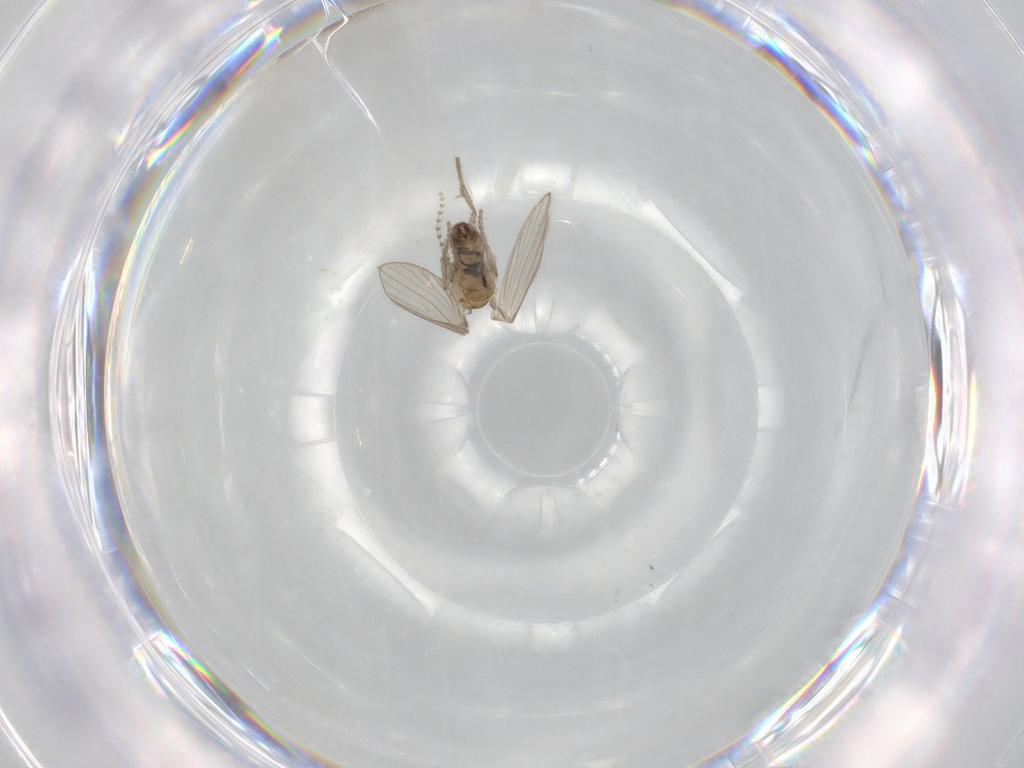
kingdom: Animalia
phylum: Arthropoda
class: Insecta
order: Diptera
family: Psychodidae
